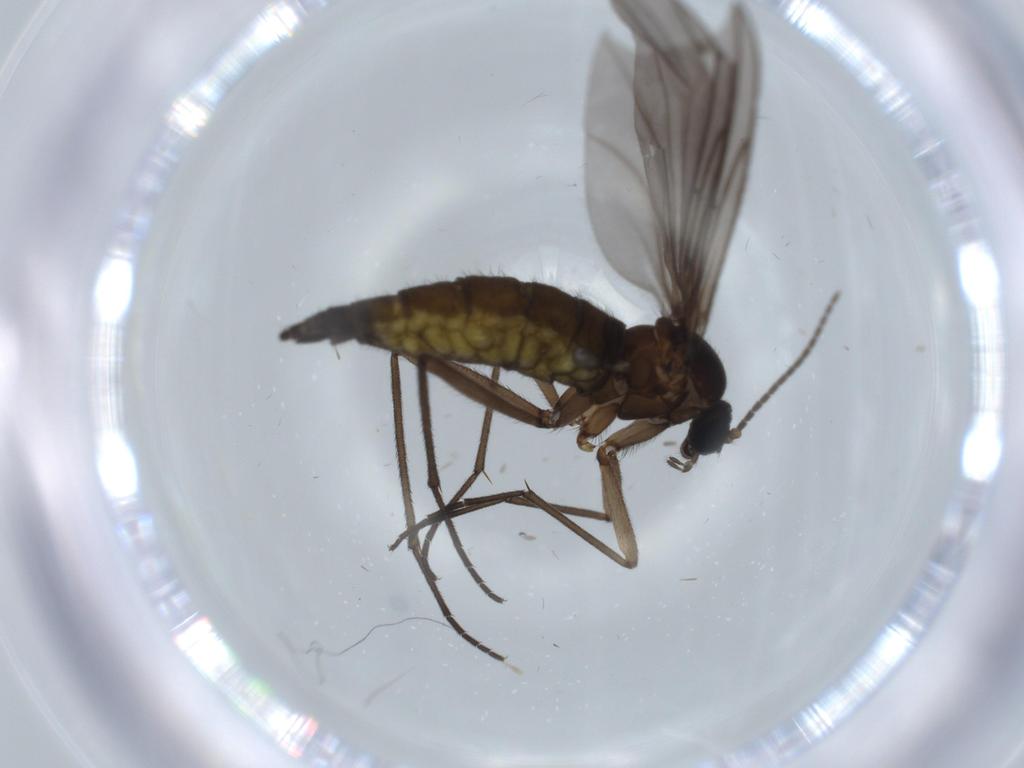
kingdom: Animalia
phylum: Arthropoda
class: Insecta
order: Diptera
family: Sciaridae
